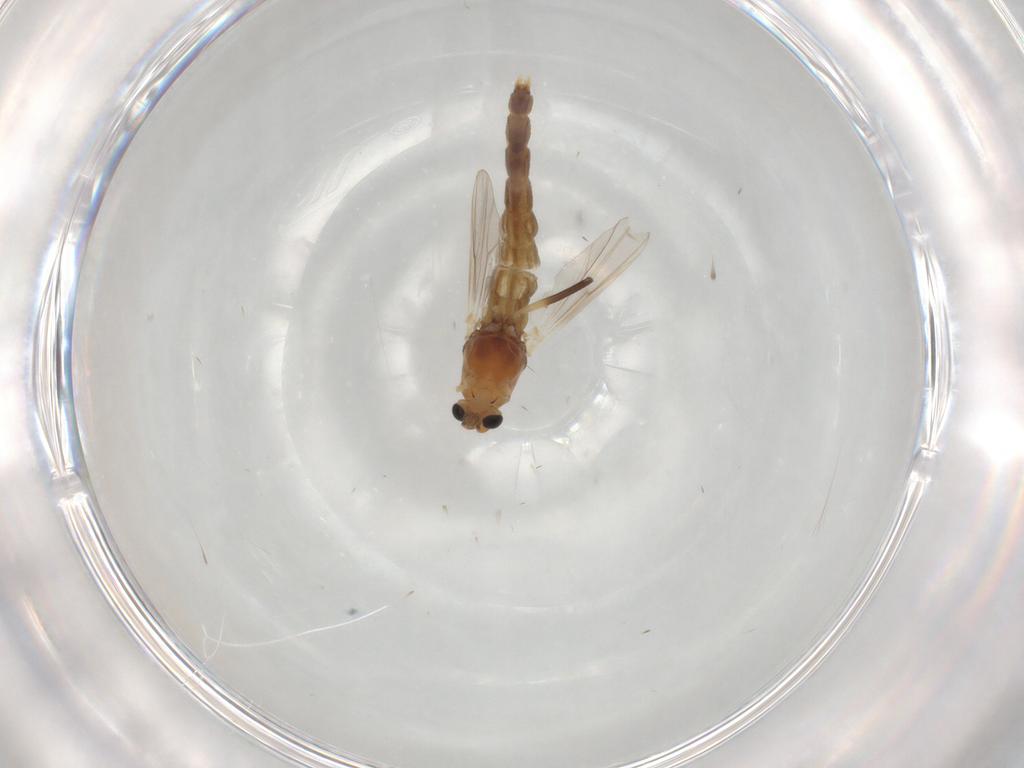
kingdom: Animalia
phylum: Arthropoda
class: Insecta
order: Diptera
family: Chironomidae
